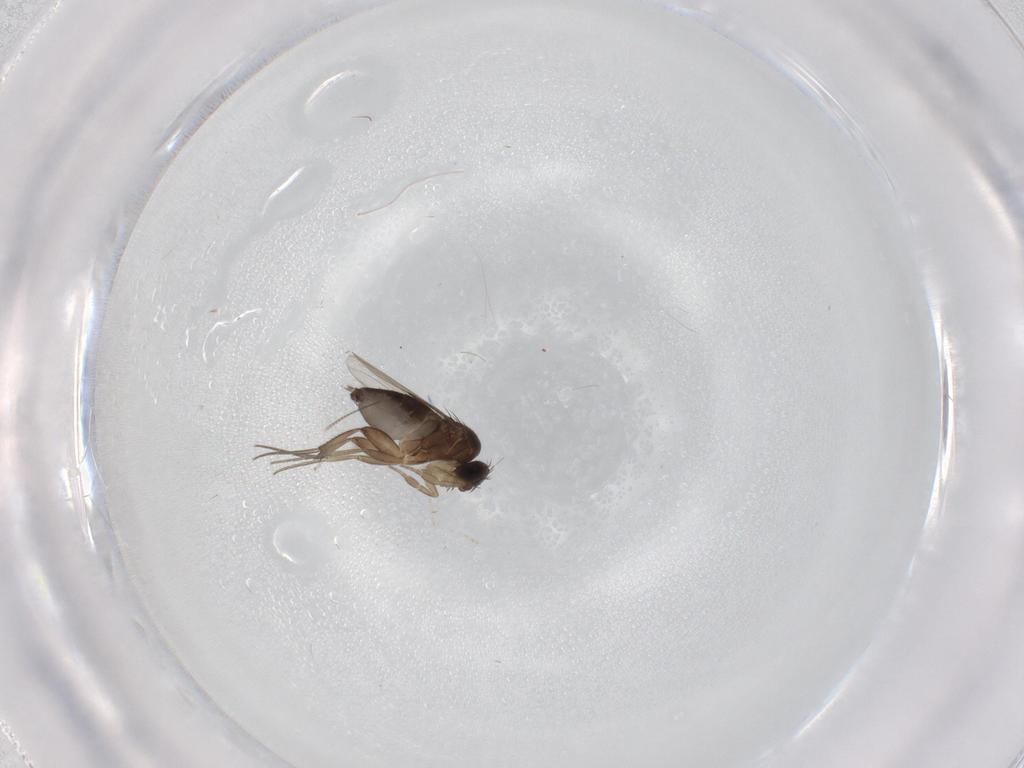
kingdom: Animalia
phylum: Arthropoda
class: Insecta
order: Diptera
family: Phoridae
